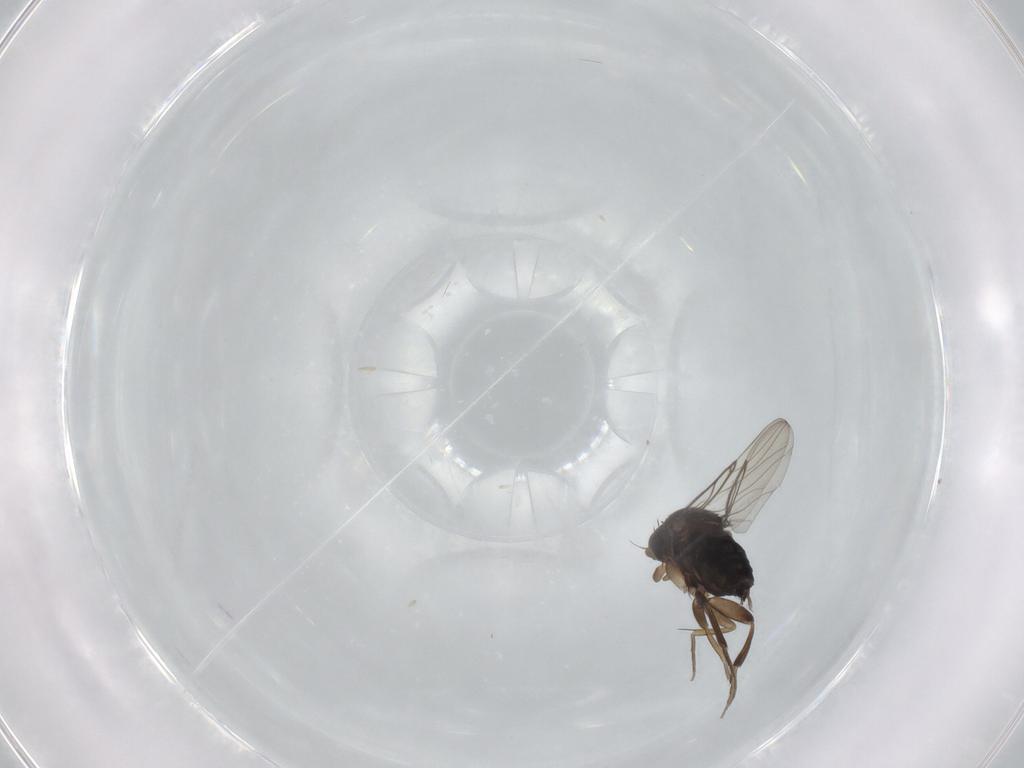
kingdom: Animalia
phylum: Arthropoda
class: Insecta
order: Diptera
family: Phoridae
